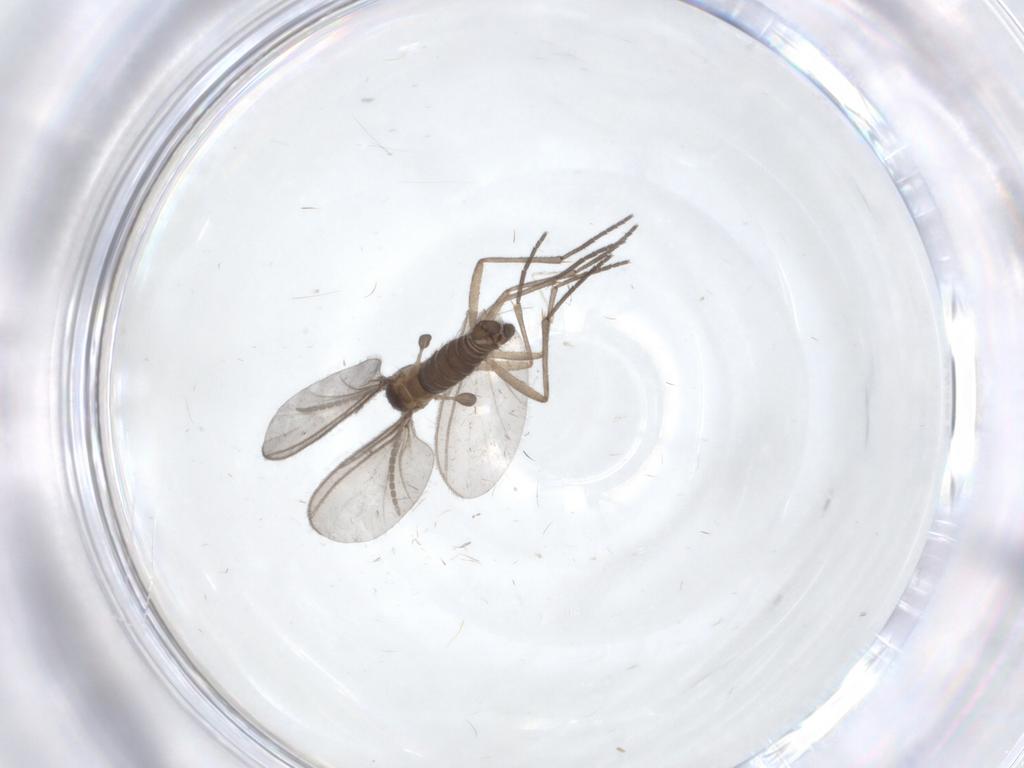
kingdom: Animalia
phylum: Arthropoda
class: Insecta
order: Diptera
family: Cecidomyiidae
